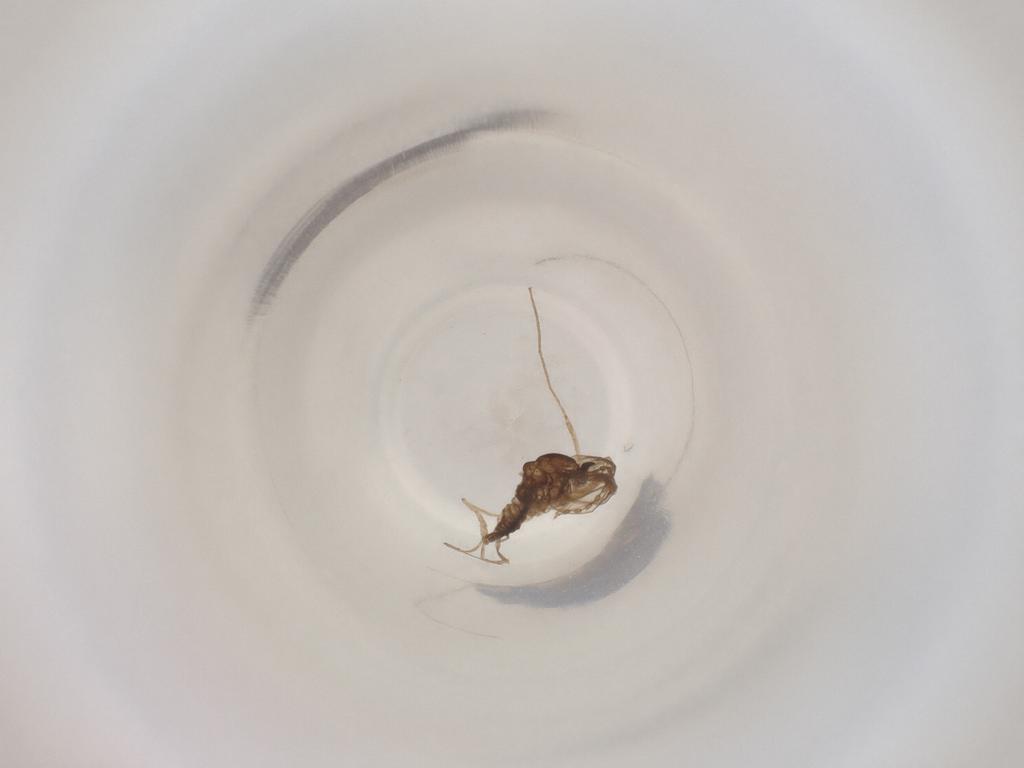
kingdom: Animalia
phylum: Arthropoda
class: Insecta
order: Diptera
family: Cecidomyiidae
